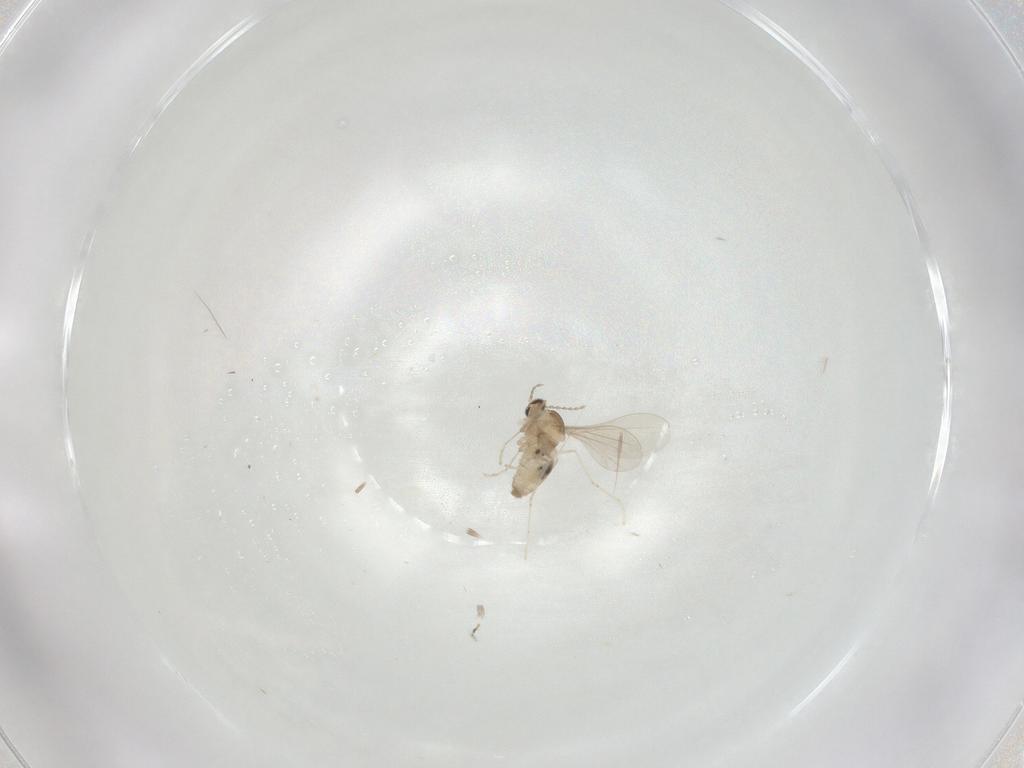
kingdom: Animalia
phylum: Arthropoda
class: Insecta
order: Diptera
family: Cecidomyiidae
